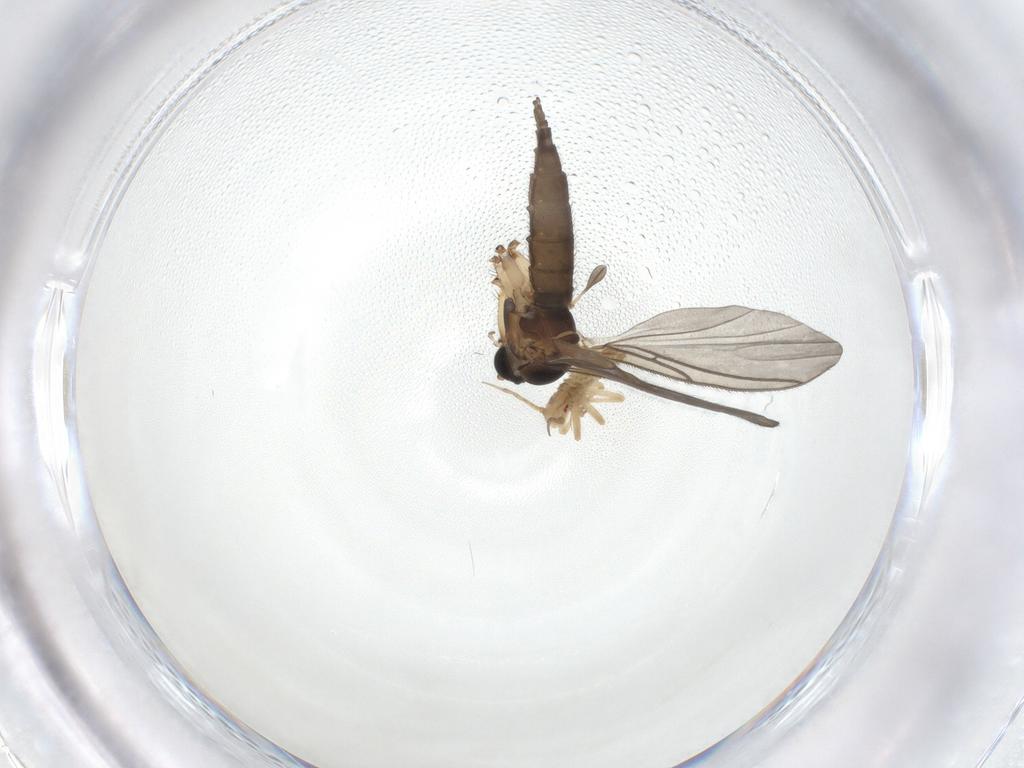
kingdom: Animalia
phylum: Arthropoda
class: Insecta
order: Diptera
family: Sciaridae
